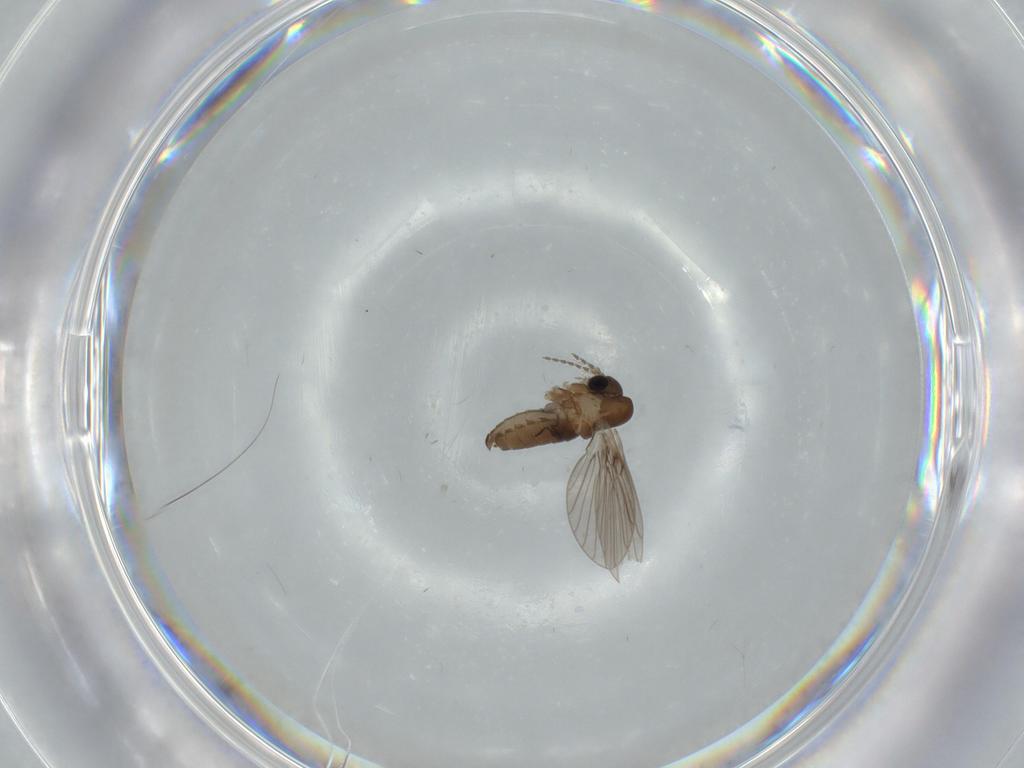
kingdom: Animalia
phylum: Arthropoda
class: Insecta
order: Diptera
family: Psychodidae
